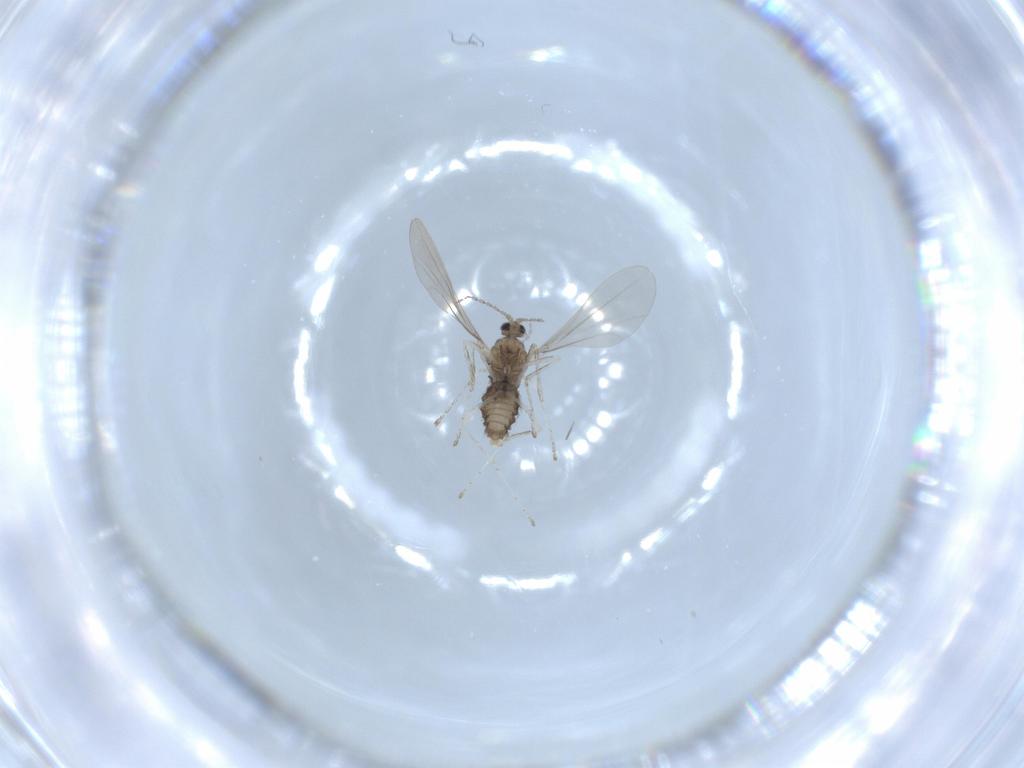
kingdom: Animalia
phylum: Arthropoda
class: Insecta
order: Diptera
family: Cecidomyiidae
